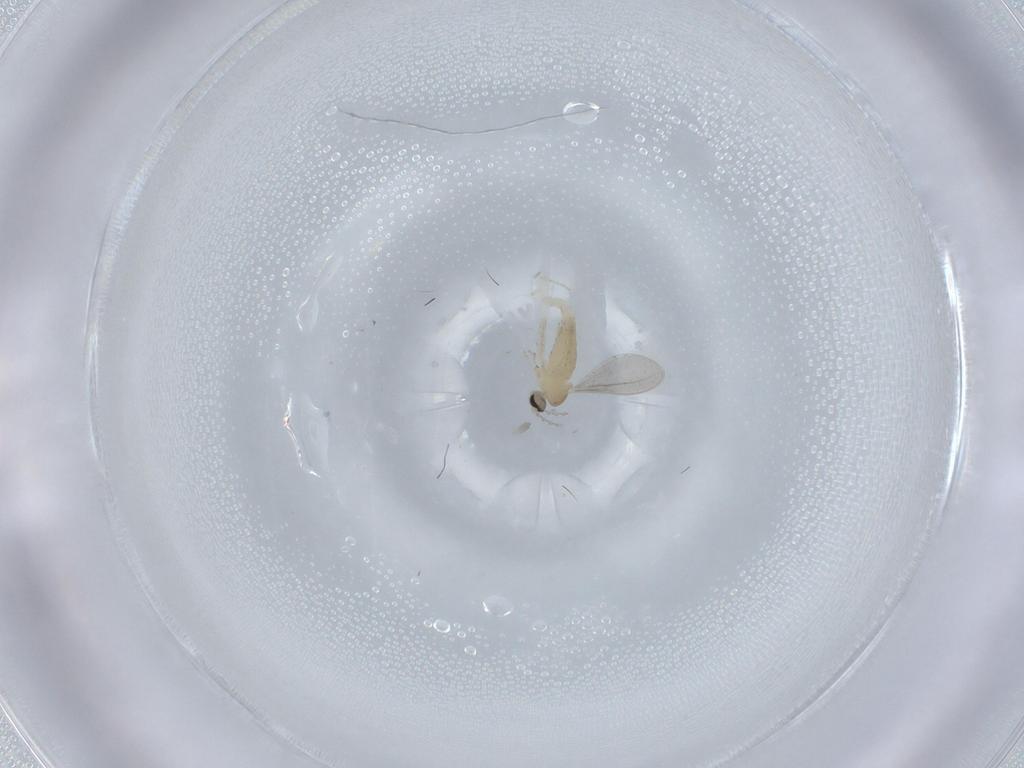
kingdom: Animalia
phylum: Arthropoda
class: Insecta
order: Diptera
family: Cecidomyiidae
